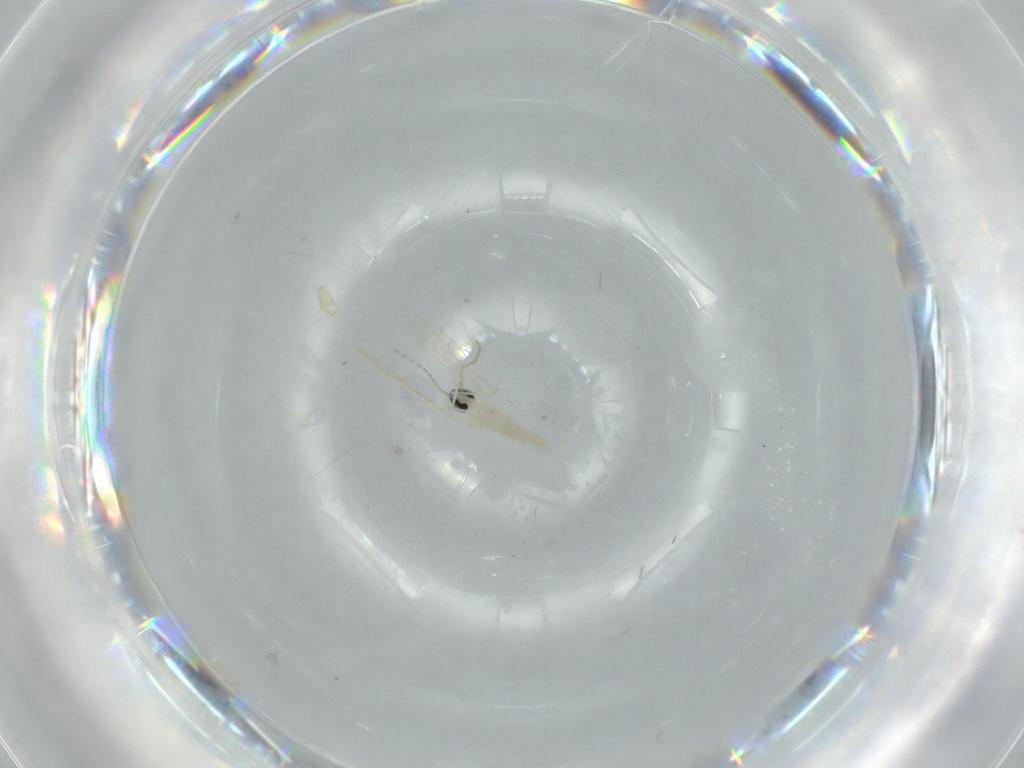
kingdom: Animalia
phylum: Arthropoda
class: Insecta
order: Diptera
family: Cecidomyiidae
